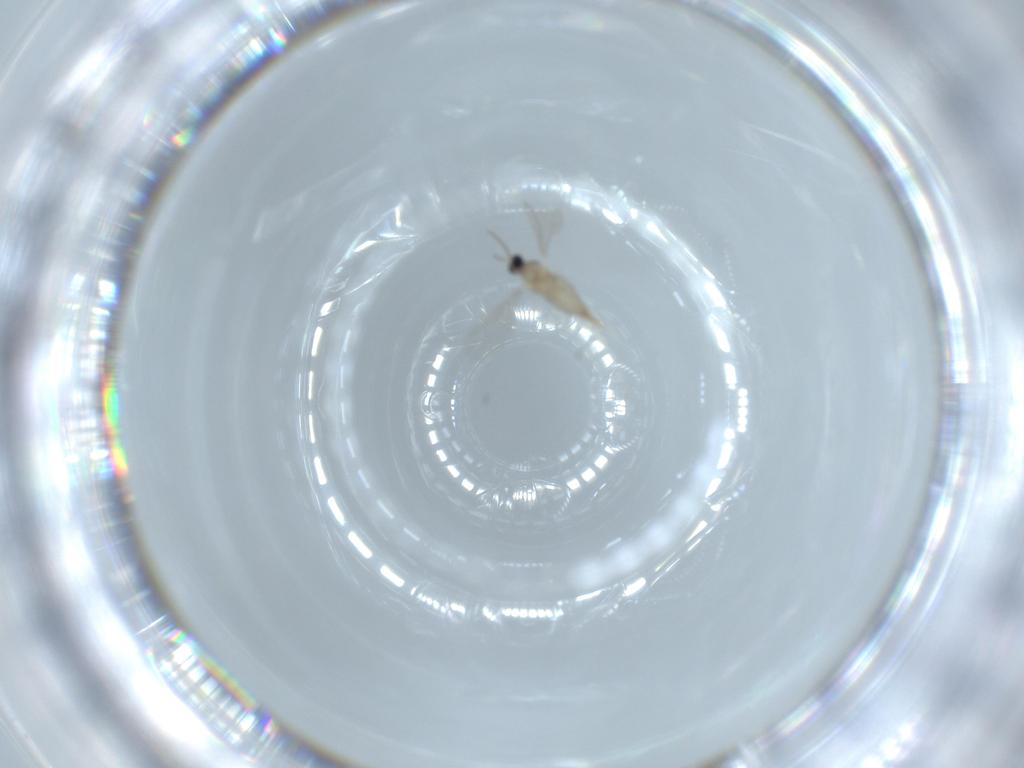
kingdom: Animalia
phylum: Arthropoda
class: Insecta
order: Diptera
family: Cecidomyiidae
